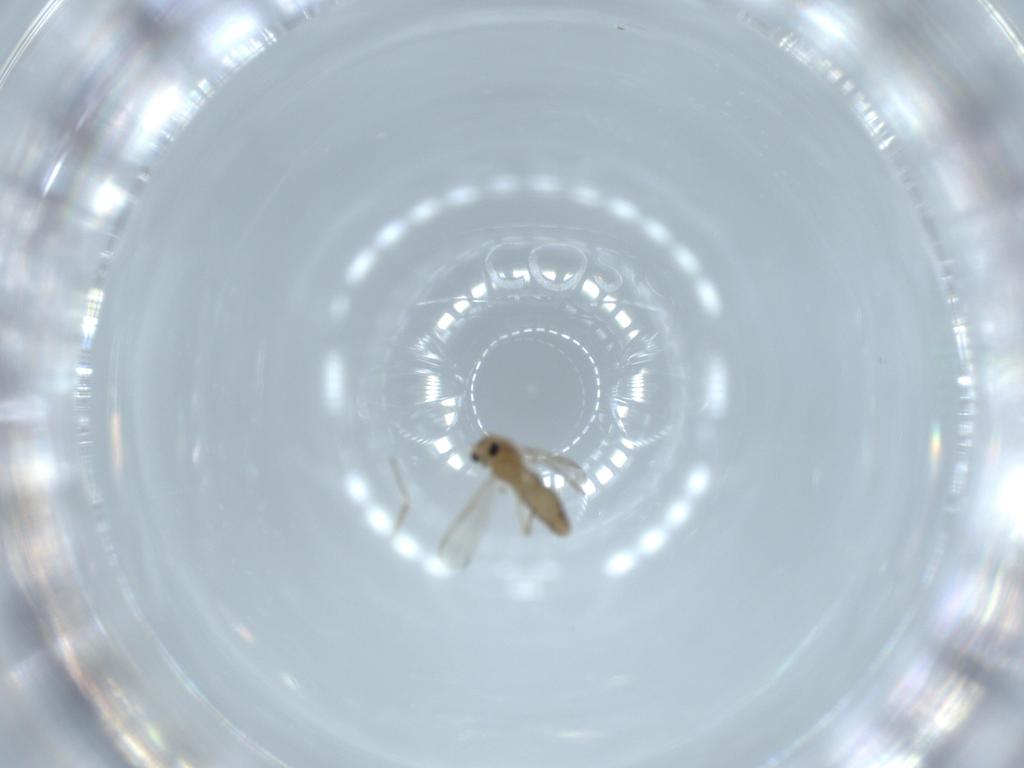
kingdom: Animalia
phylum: Arthropoda
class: Insecta
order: Diptera
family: Chironomidae
